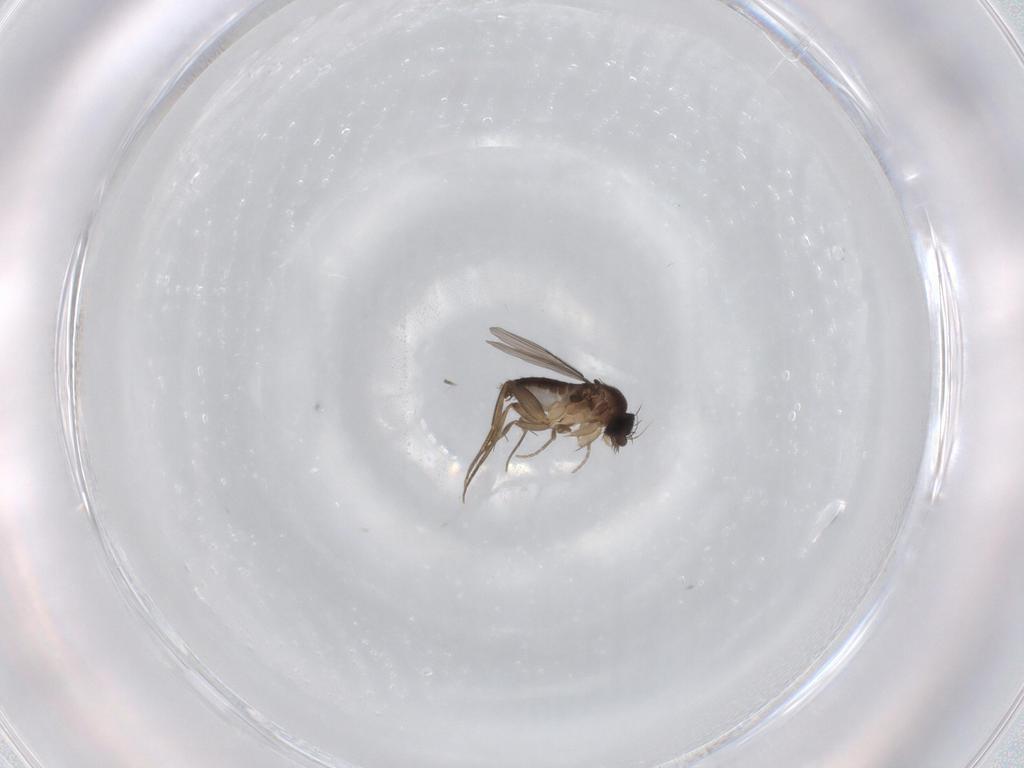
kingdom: Animalia
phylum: Arthropoda
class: Insecta
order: Diptera
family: Phoridae
